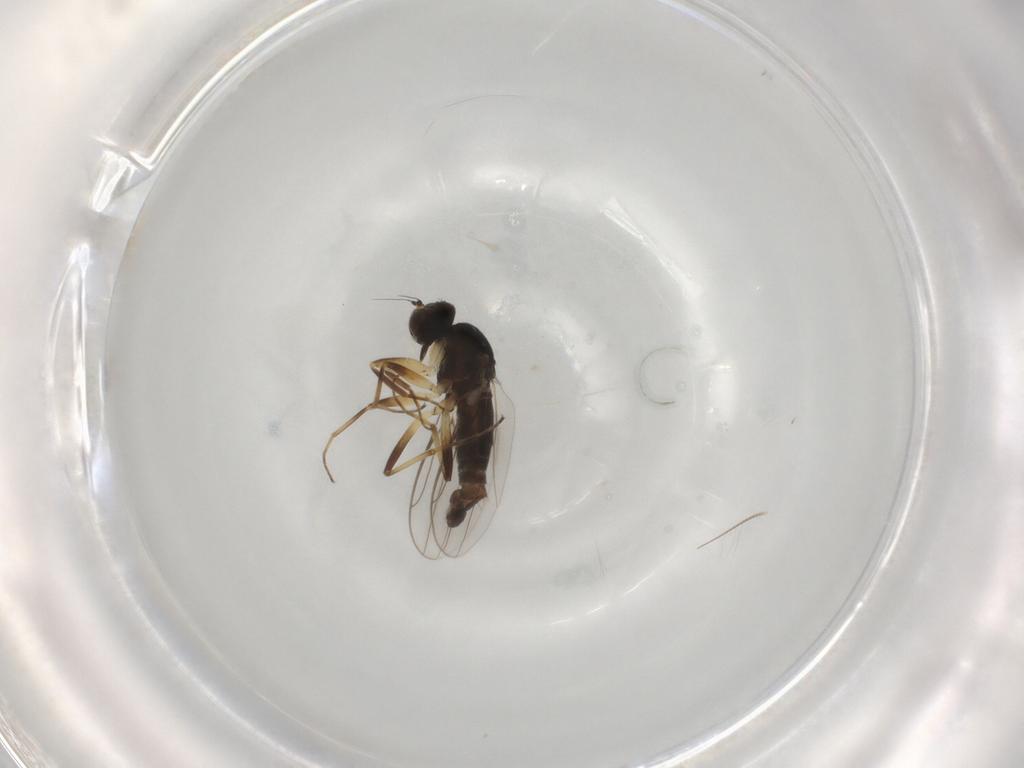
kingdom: Animalia
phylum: Arthropoda
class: Insecta
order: Diptera
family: Hybotidae
